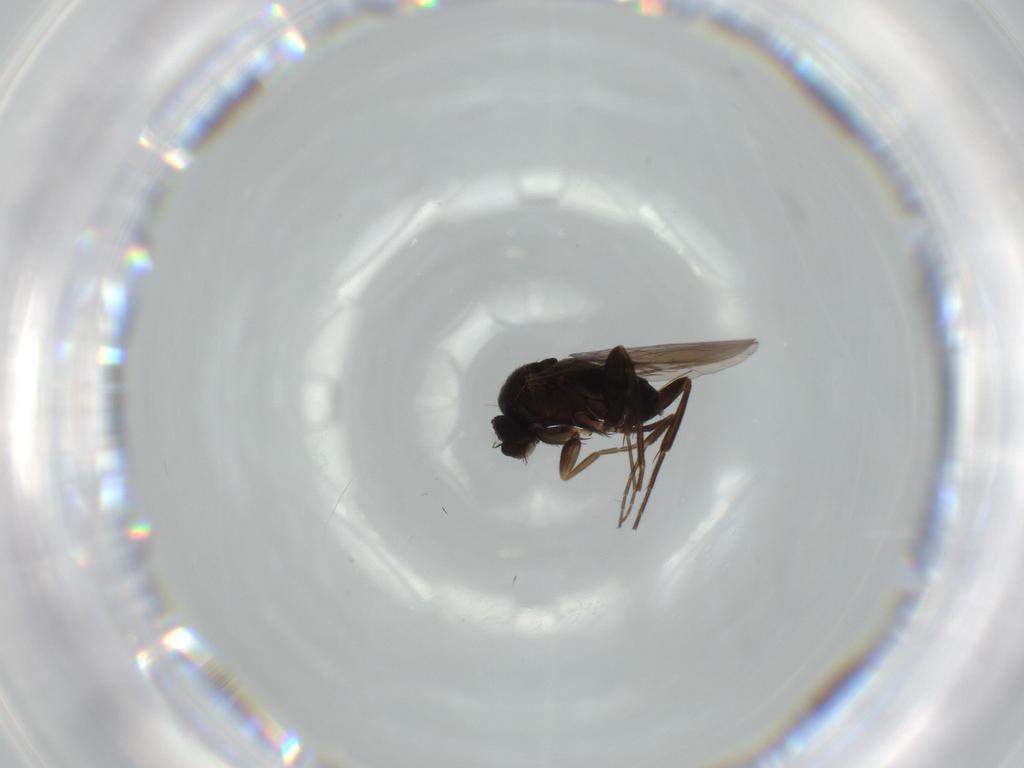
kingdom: Animalia
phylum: Arthropoda
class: Insecta
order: Diptera
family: Phoridae
